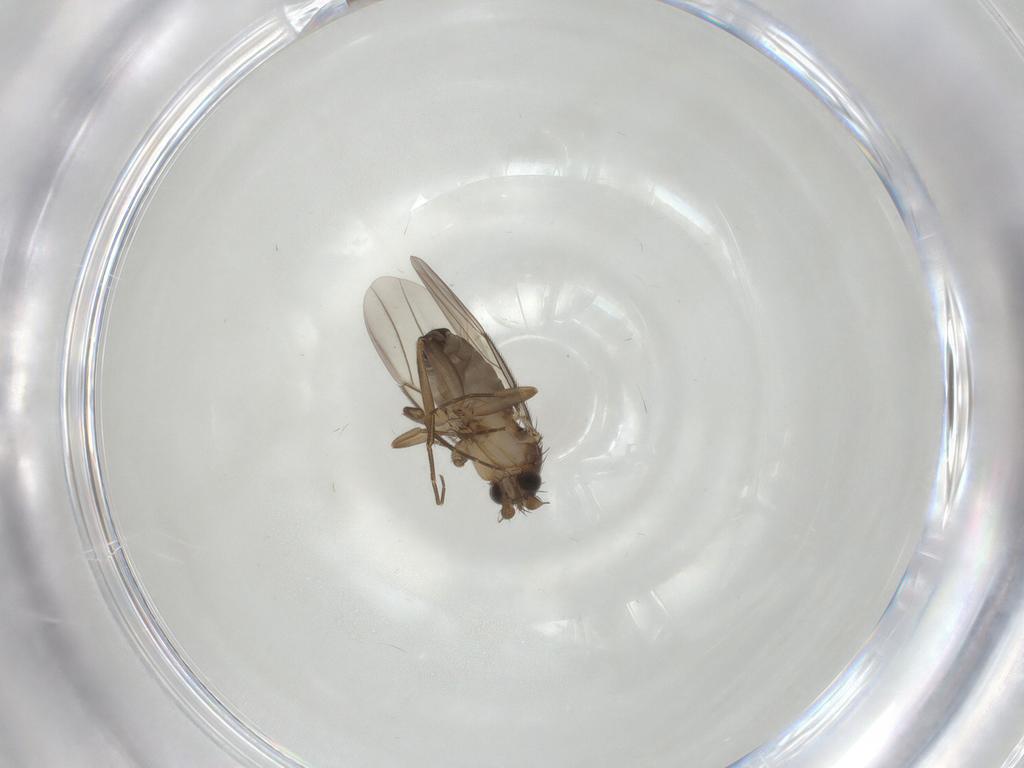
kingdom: Animalia
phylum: Arthropoda
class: Insecta
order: Diptera
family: Phoridae
